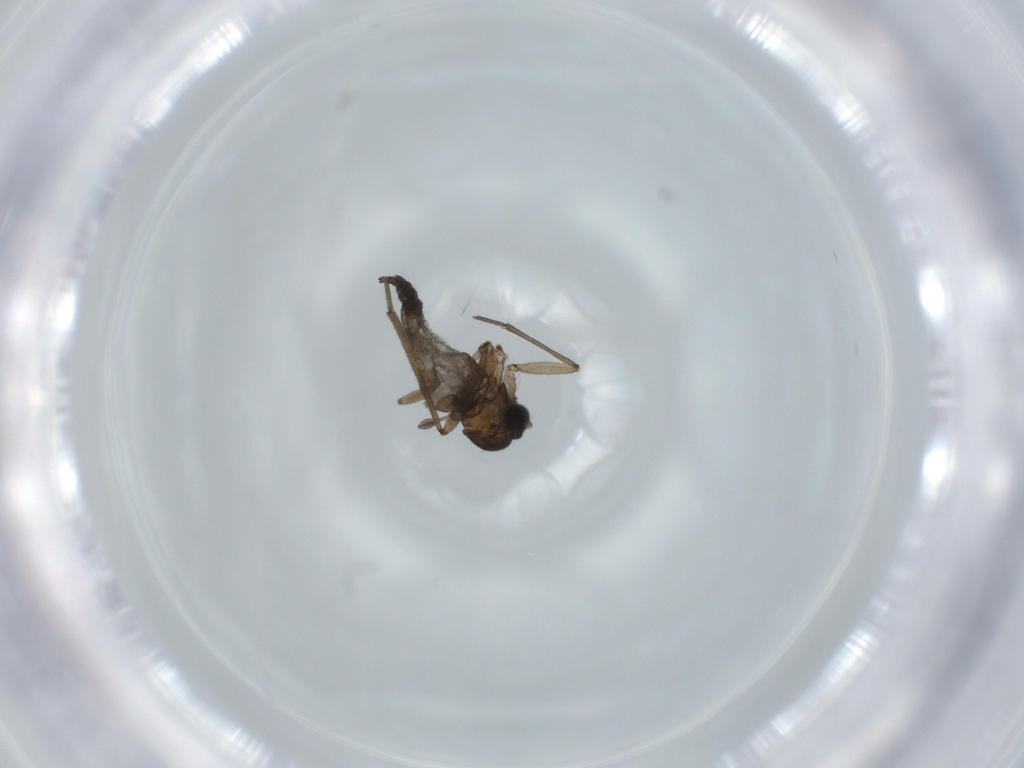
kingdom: Animalia
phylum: Arthropoda
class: Insecta
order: Diptera
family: Sciaridae
